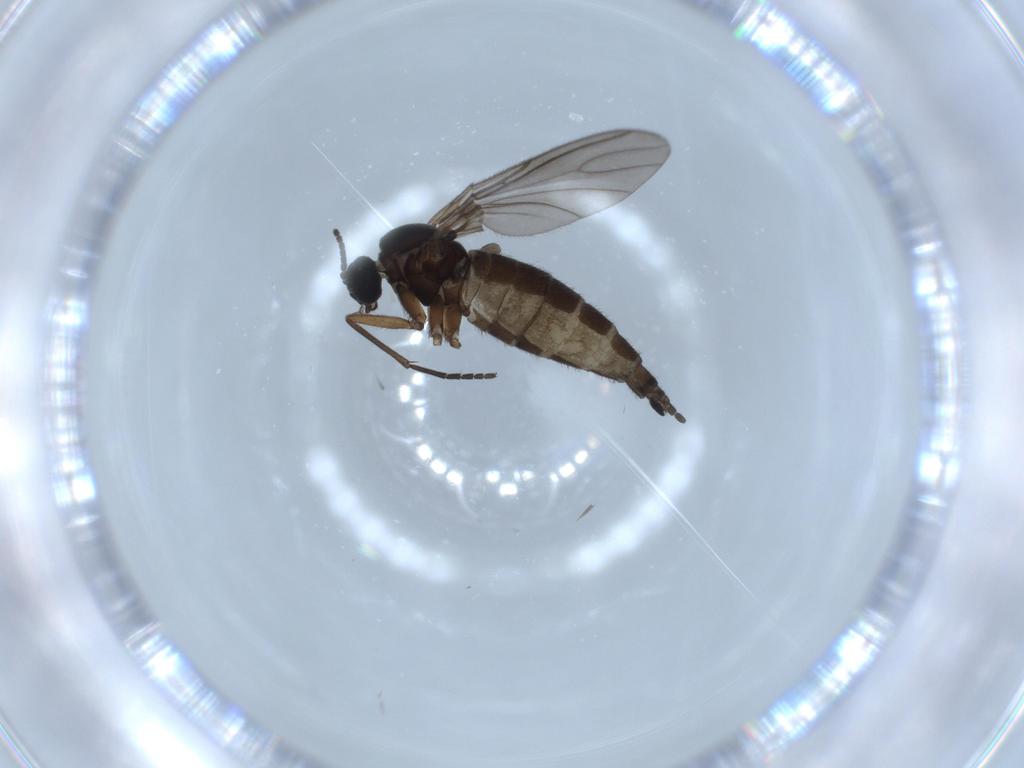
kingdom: Animalia
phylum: Arthropoda
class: Insecta
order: Diptera
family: Sciaridae
